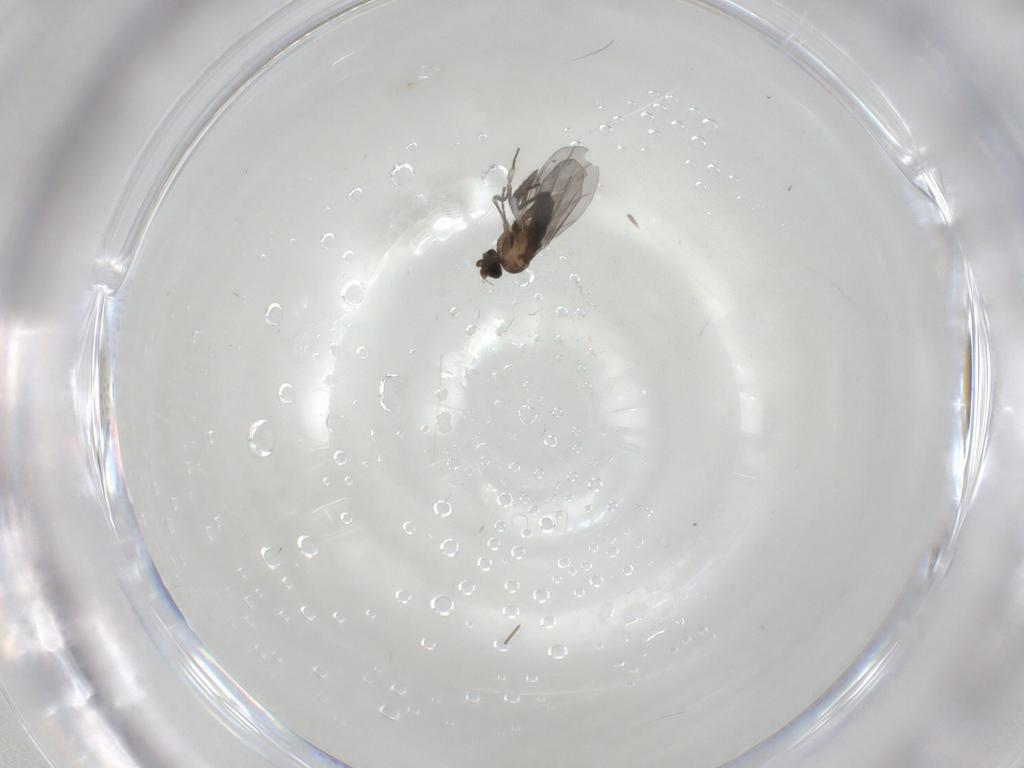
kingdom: Animalia
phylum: Arthropoda
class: Insecta
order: Diptera
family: Phoridae
